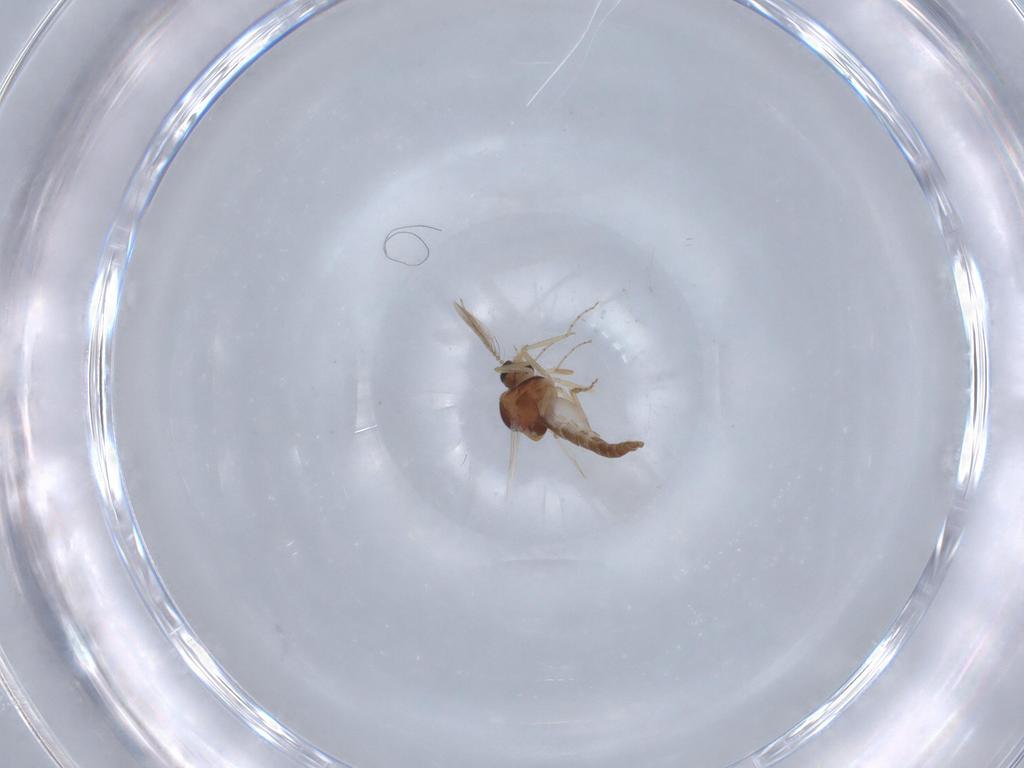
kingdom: Animalia
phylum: Arthropoda
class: Insecta
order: Diptera
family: Ceratopogonidae
